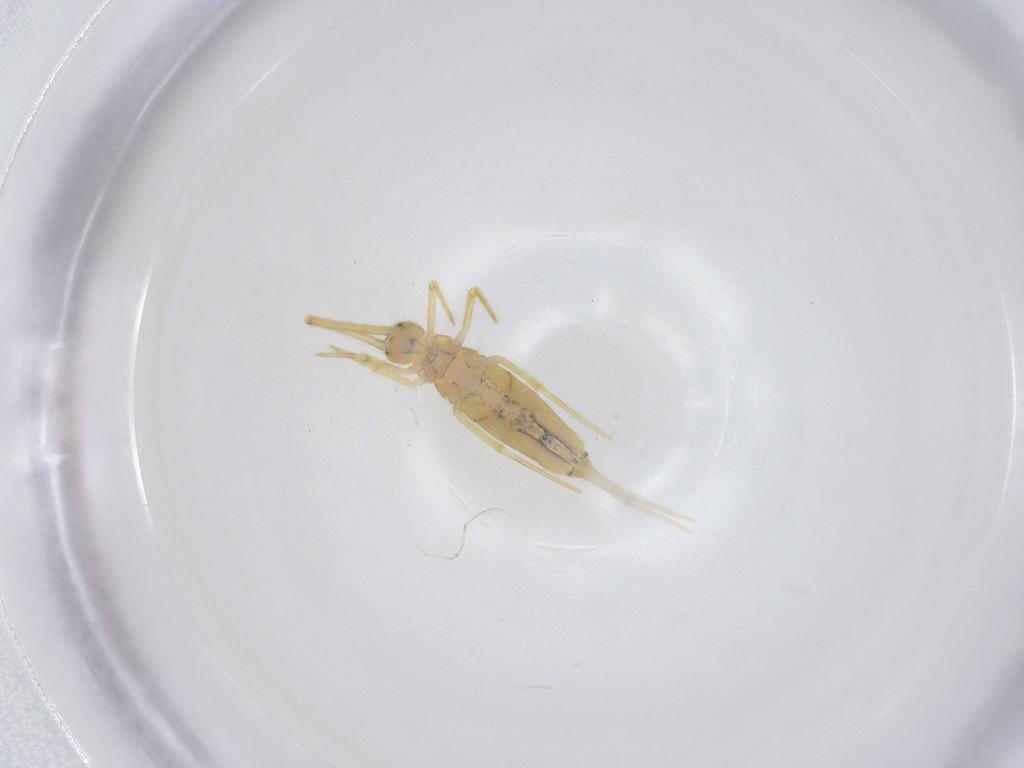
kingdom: Animalia
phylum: Arthropoda
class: Collembola
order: Entomobryomorpha
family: Paronellidae
